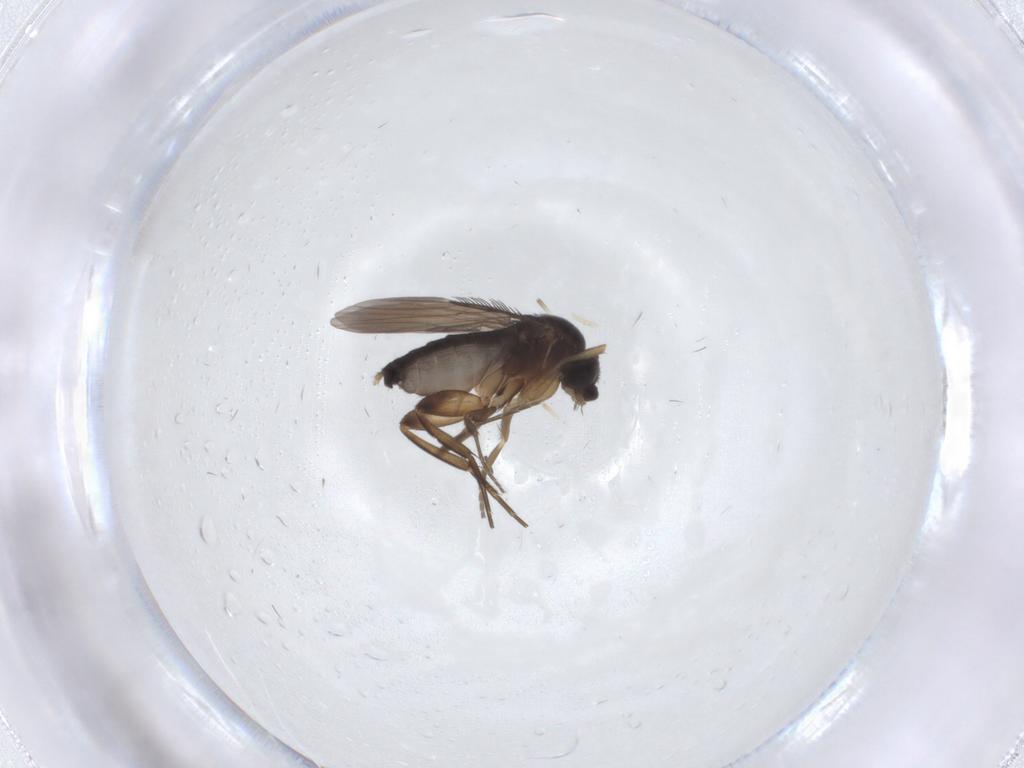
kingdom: Animalia
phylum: Arthropoda
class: Insecta
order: Diptera
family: Phoridae
